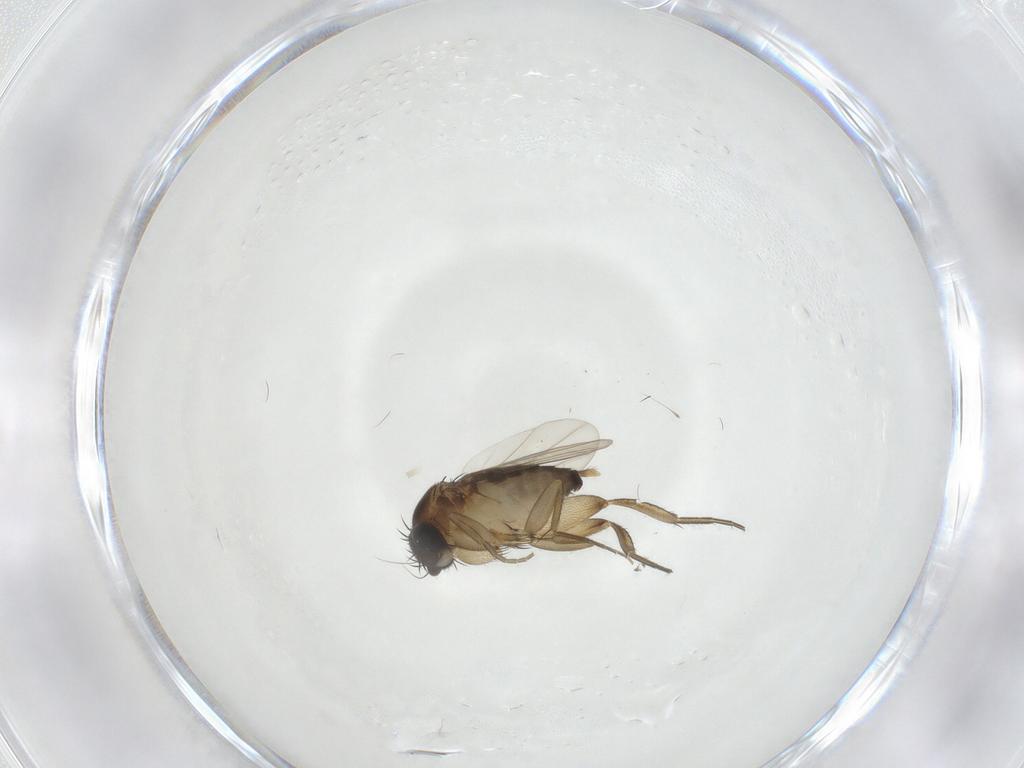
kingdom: Animalia
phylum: Arthropoda
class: Insecta
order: Diptera
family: Phoridae
